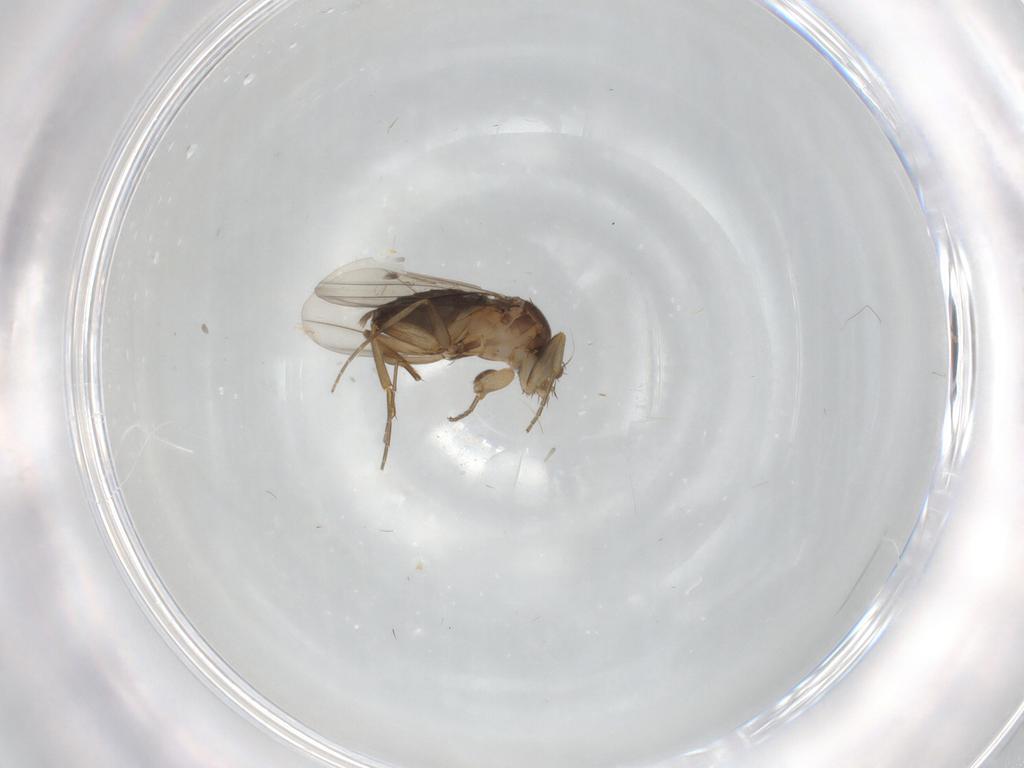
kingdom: Animalia
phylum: Arthropoda
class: Insecta
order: Diptera
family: Phoridae
